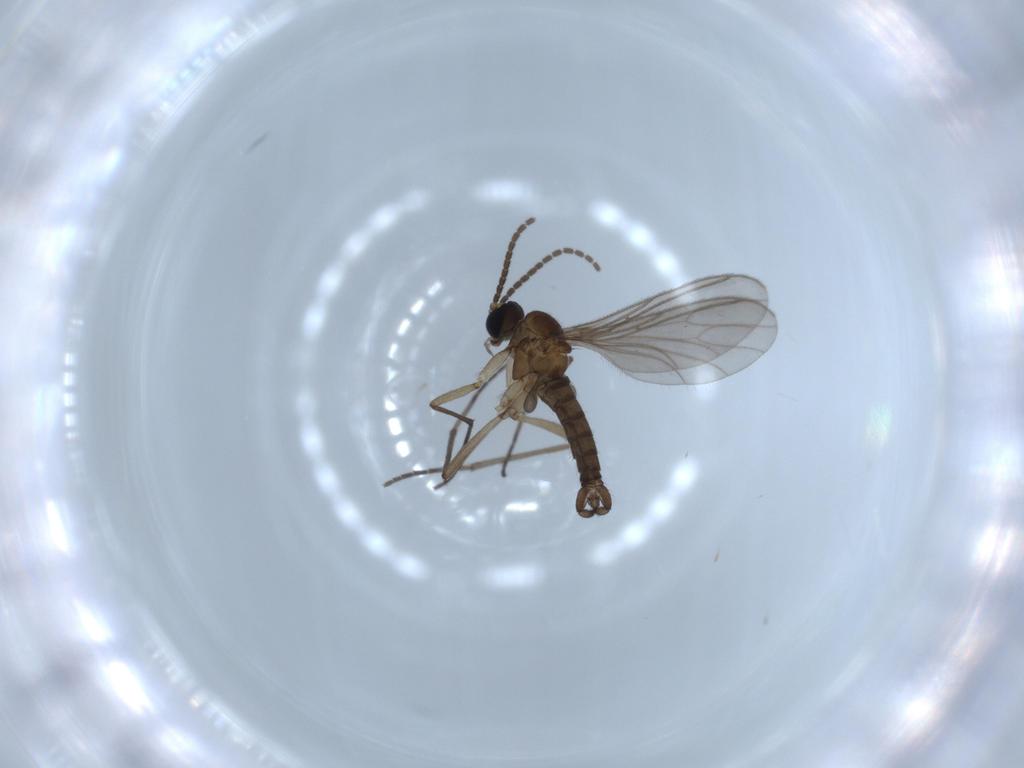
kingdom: Animalia
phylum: Arthropoda
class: Insecta
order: Diptera
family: Sciaridae
